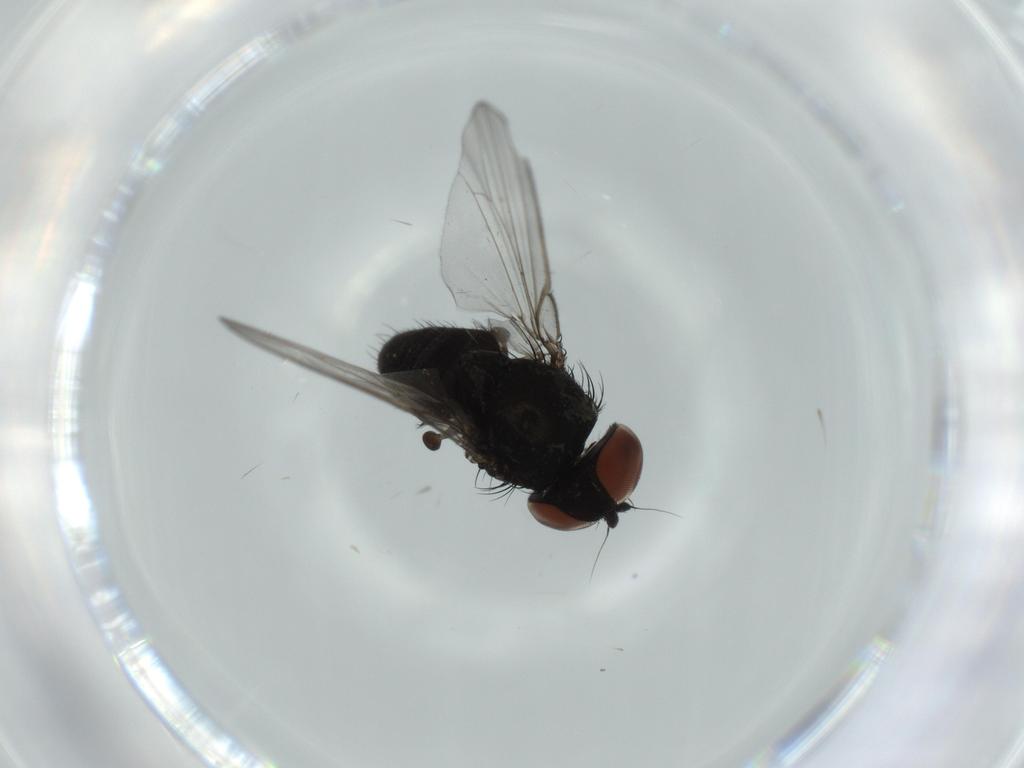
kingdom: Animalia
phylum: Arthropoda
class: Insecta
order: Diptera
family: Milichiidae
